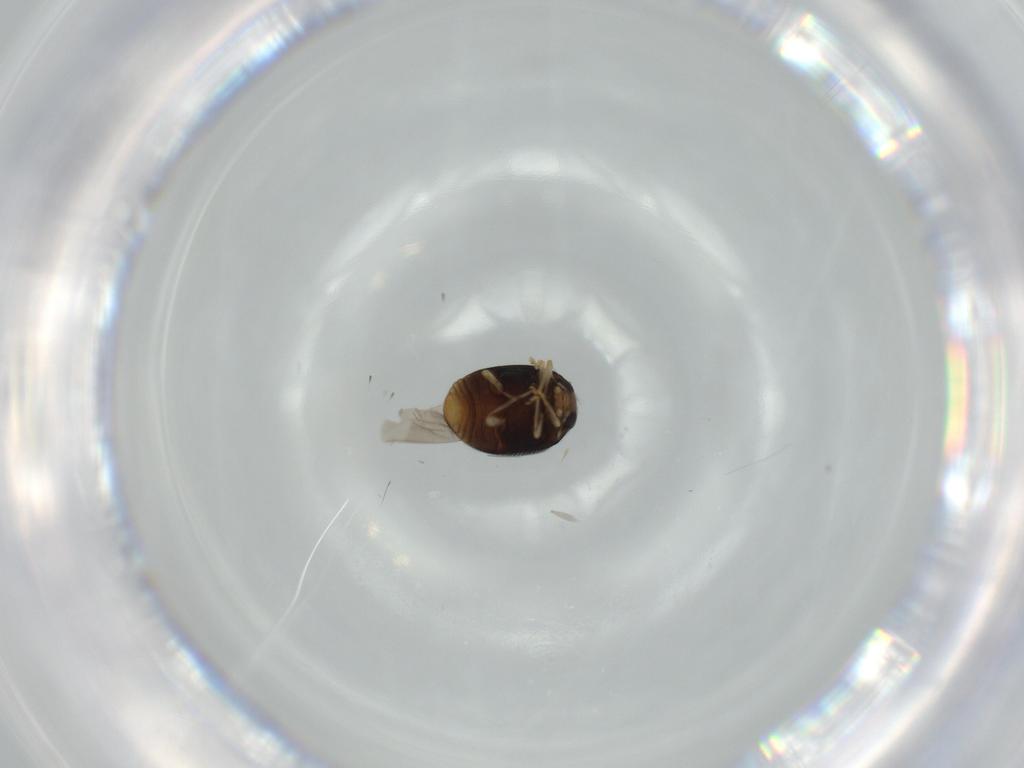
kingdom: Animalia
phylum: Arthropoda
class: Insecta
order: Coleoptera
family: Coccinellidae
